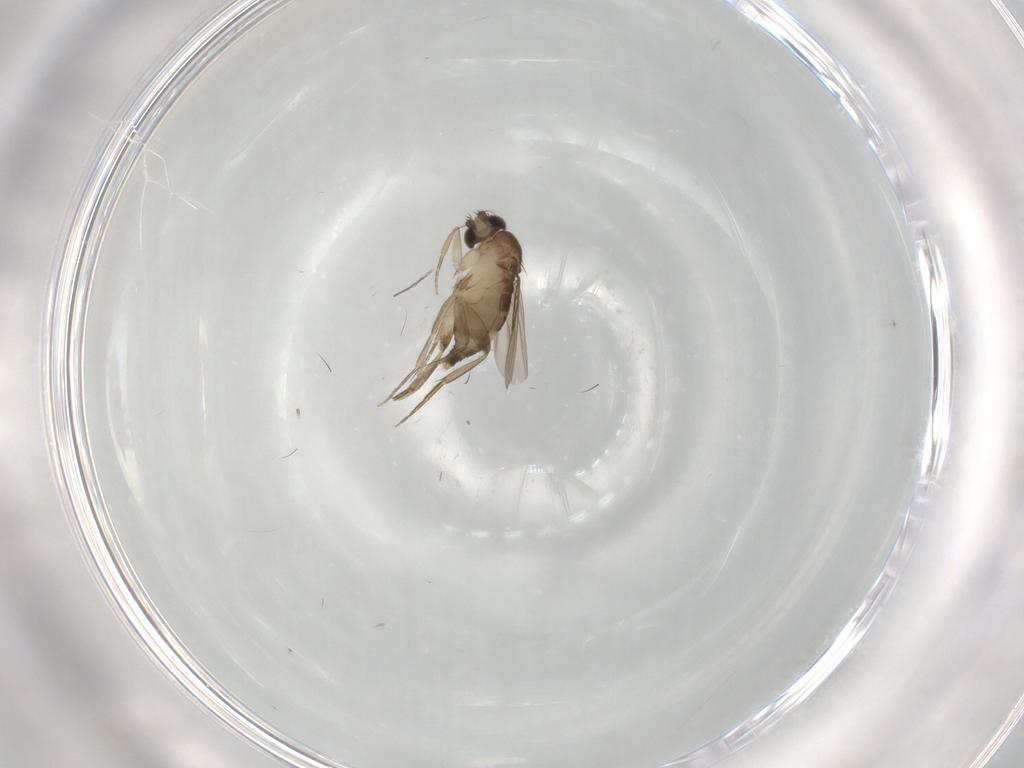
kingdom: Animalia
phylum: Arthropoda
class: Insecta
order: Diptera
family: Phoridae
